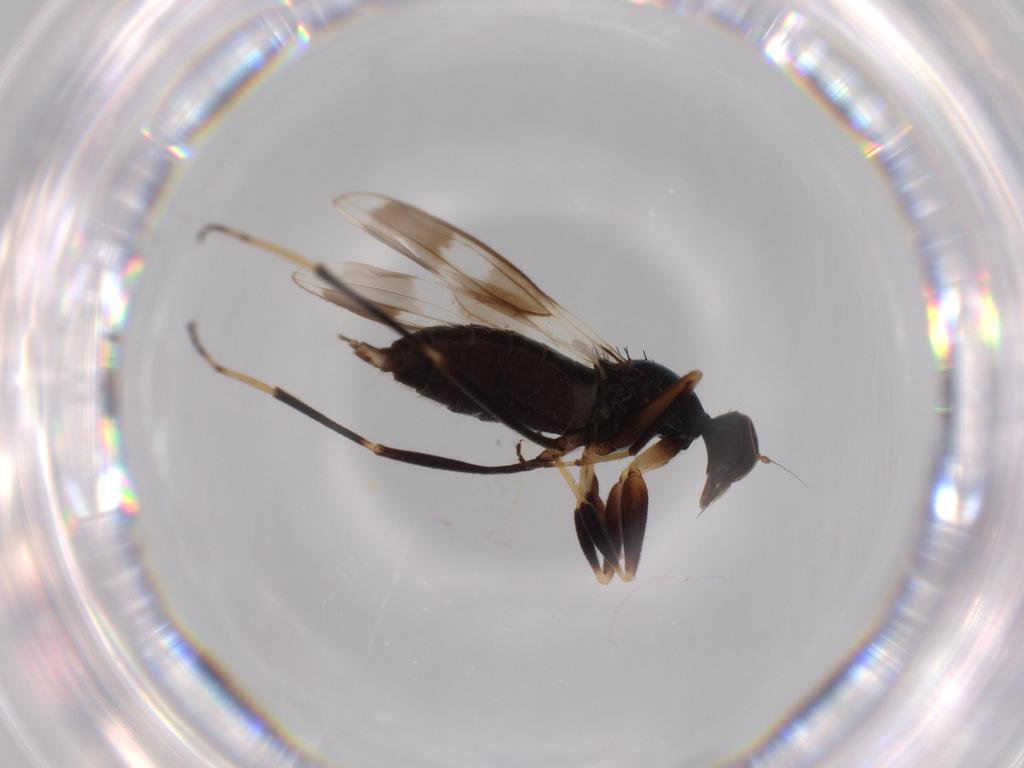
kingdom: Animalia
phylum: Arthropoda
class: Insecta
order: Diptera
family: Hybotidae
